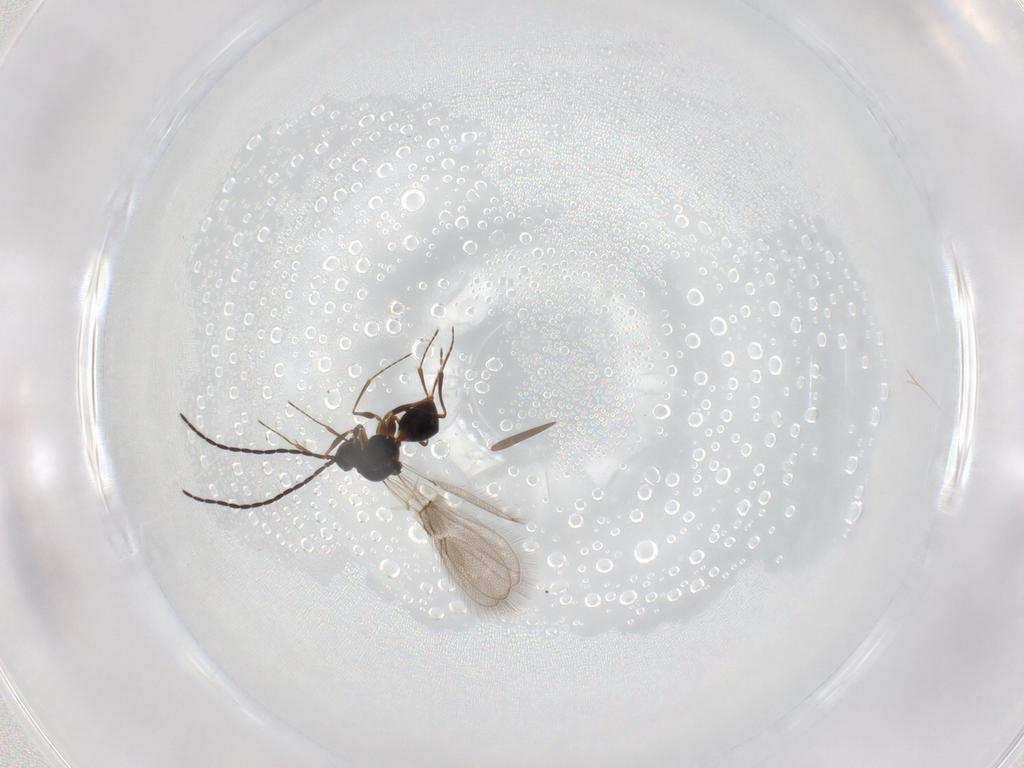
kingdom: Animalia
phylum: Arthropoda
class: Insecta
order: Hymenoptera
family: Figitidae
